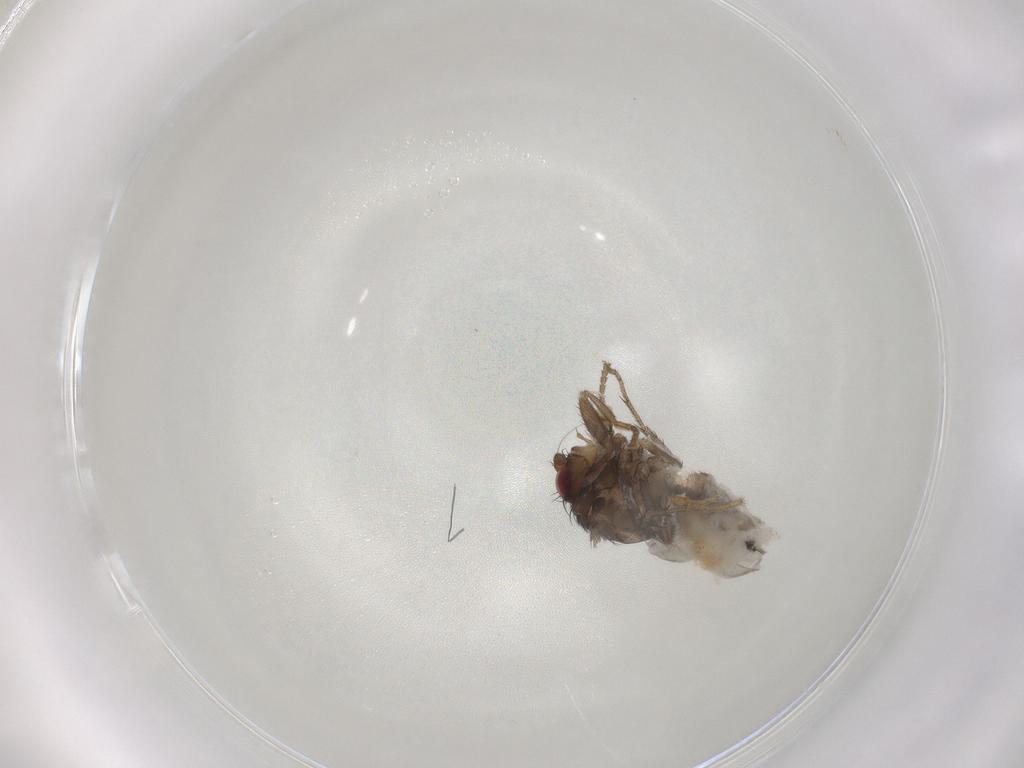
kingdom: Animalia
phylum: Arthropoda
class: Insecta
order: Diptera
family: Sphaeroceridae
